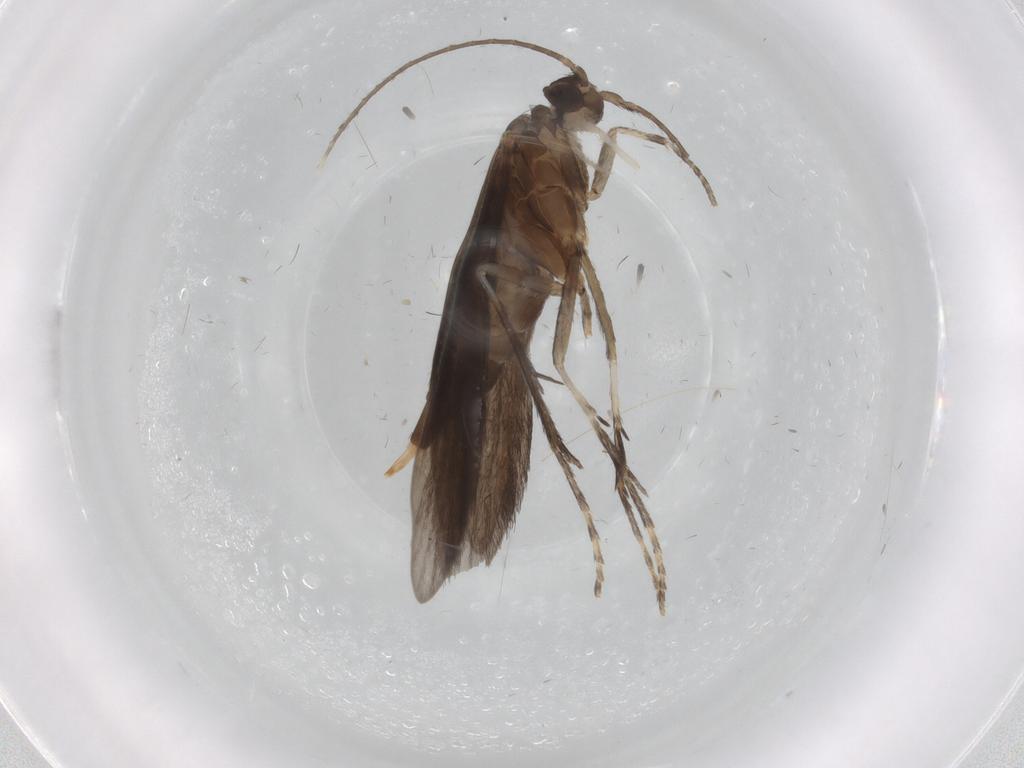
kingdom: Animalia
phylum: Arthropoda
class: Insecta
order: Trichoptera
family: Xiphocentronidae
